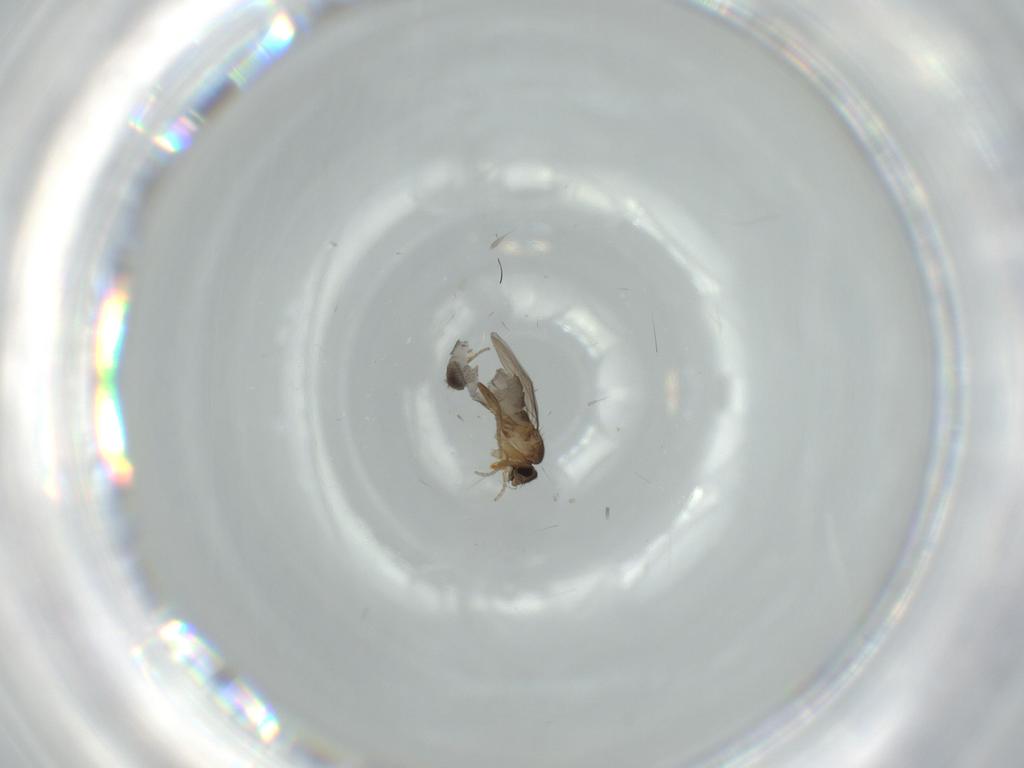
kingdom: Animalia
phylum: Arthropoda
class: Insecta
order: Diptera
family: Phoridae
